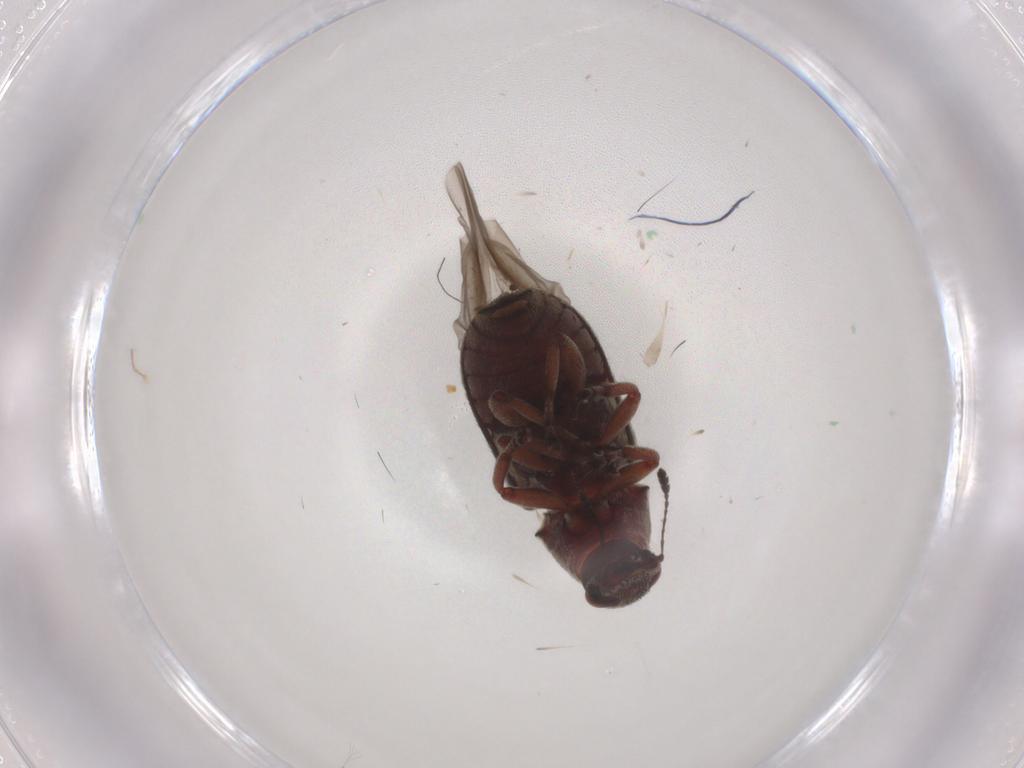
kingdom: Animalia
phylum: Arthropoda
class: Insecta
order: Coleoptera
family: Anthribidae
